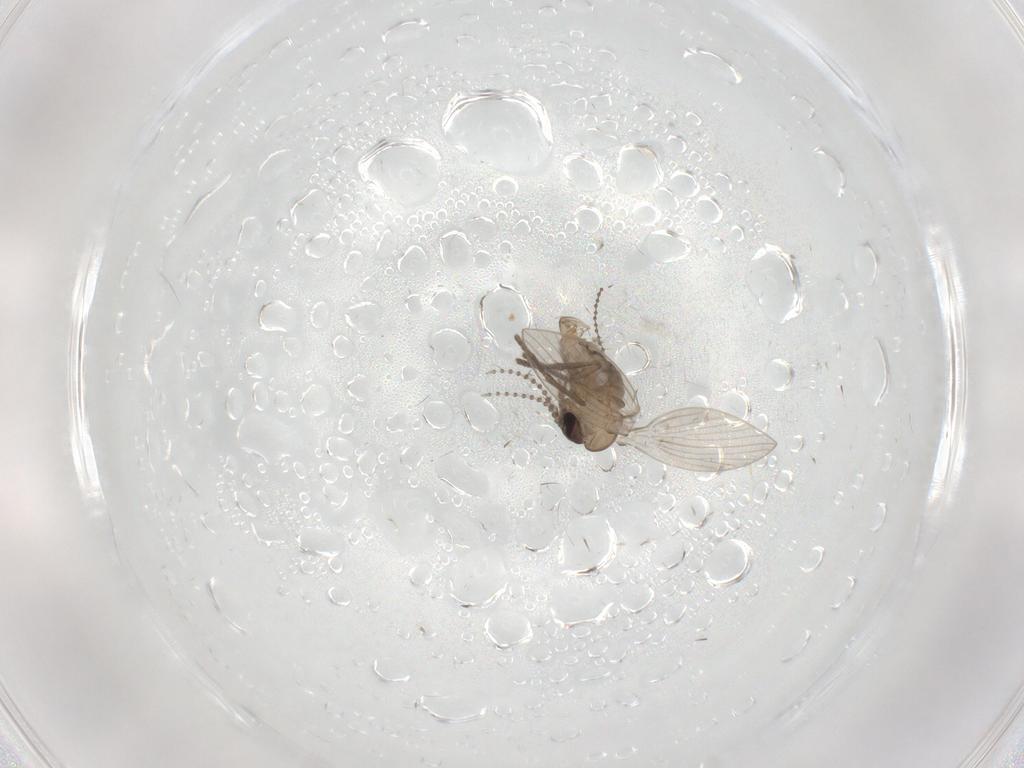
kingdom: Animalia
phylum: Arthropoda
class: Insecta
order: Diptera
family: Psychodidae
